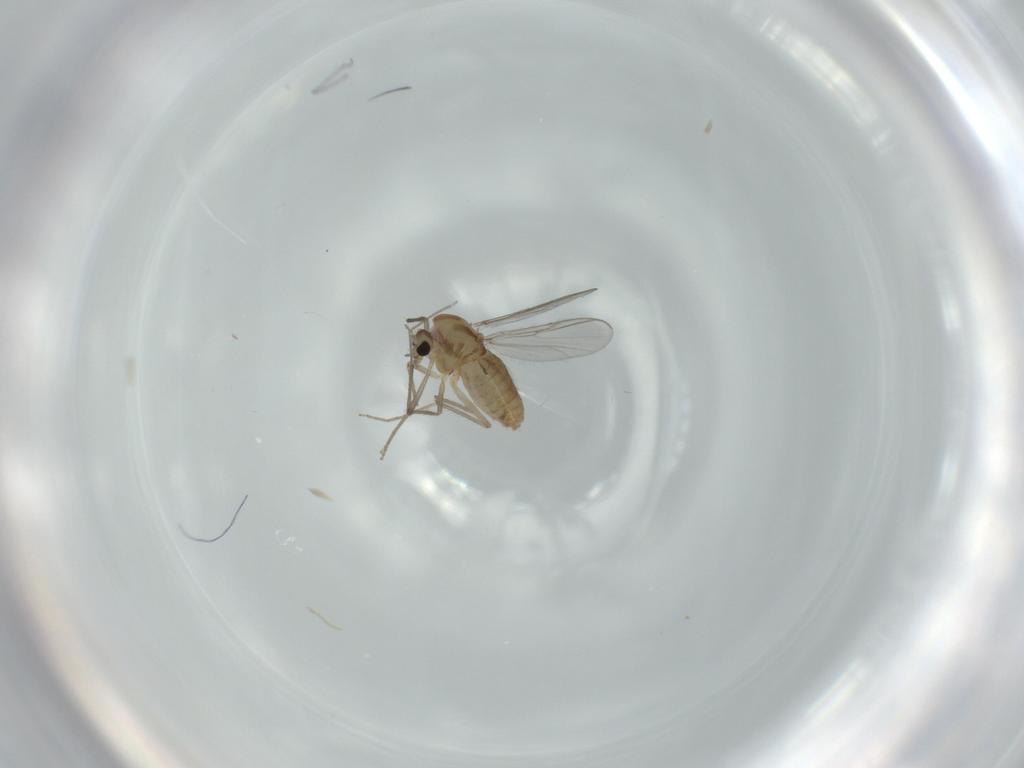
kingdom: Animalia
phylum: Arthropoda
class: Insecta
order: Diptera
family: Chironomidae
